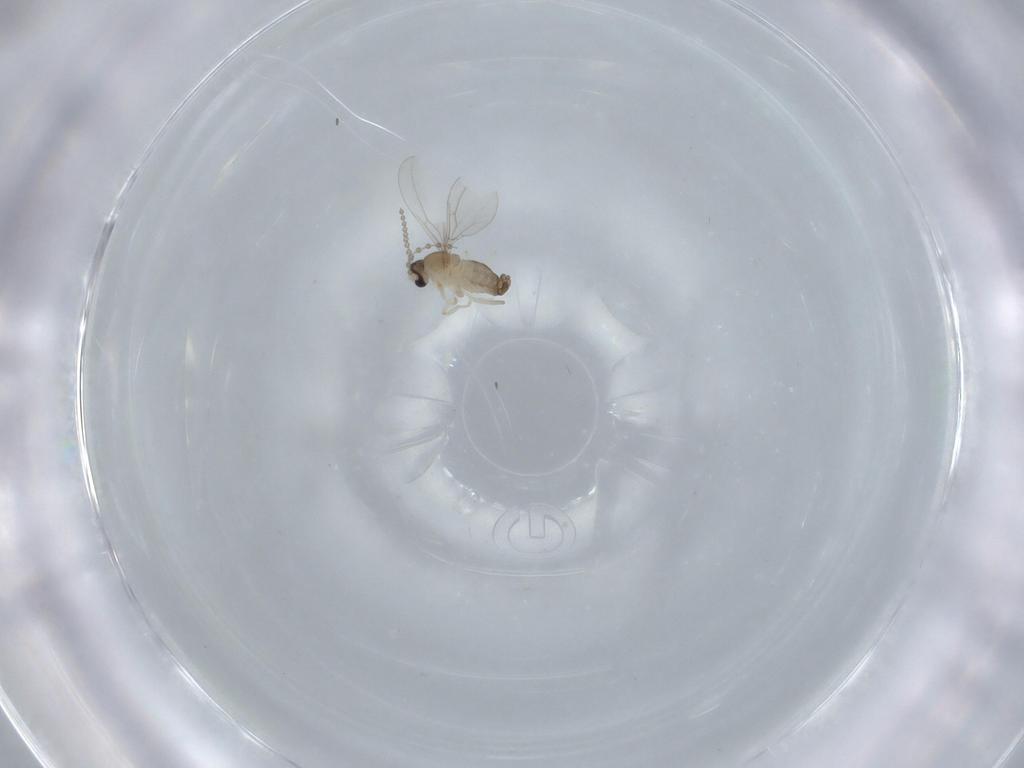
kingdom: Animalia
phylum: Arthropoda
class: Insecta
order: Diptera
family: Cecidomyiidae
